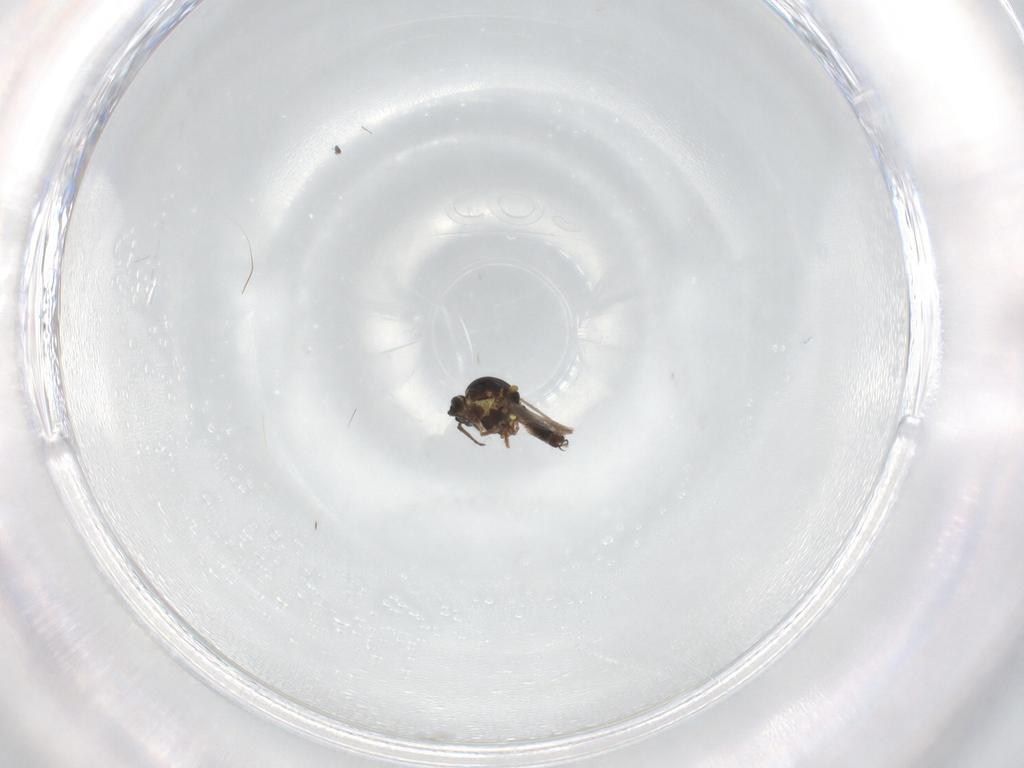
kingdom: Animalia
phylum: Arthropoda
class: Insecta
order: Diptera
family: Ceratopogonidae
